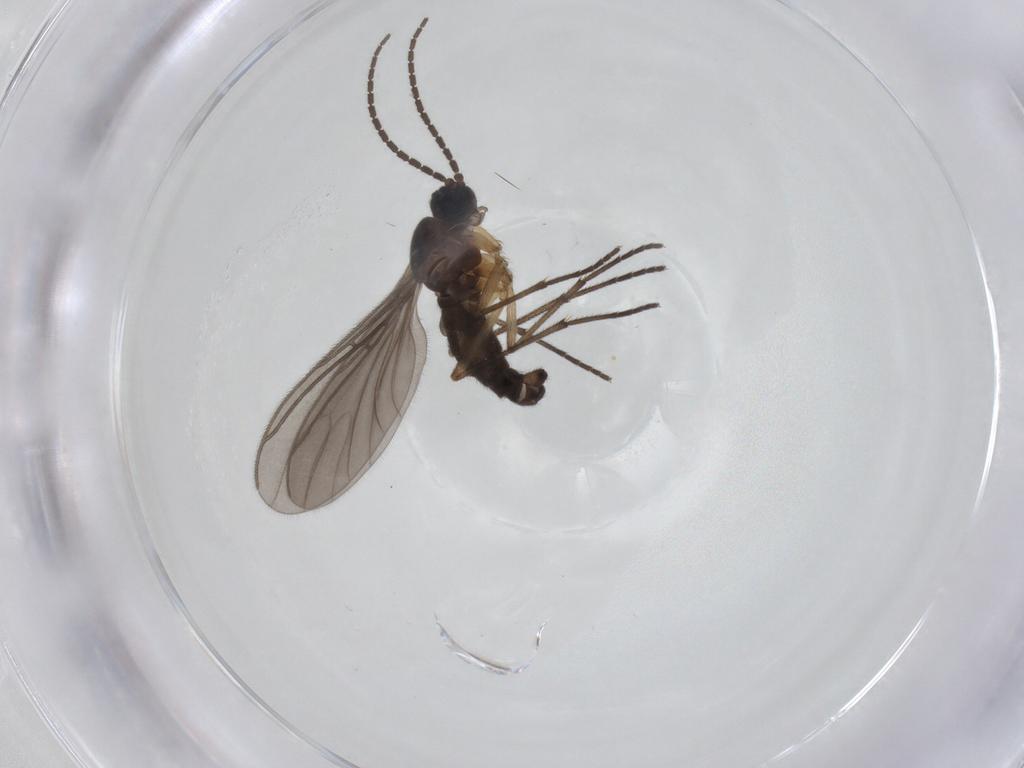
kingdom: Animalia
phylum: Arthropoda
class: Insecta
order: Diptera
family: Sciaridae
